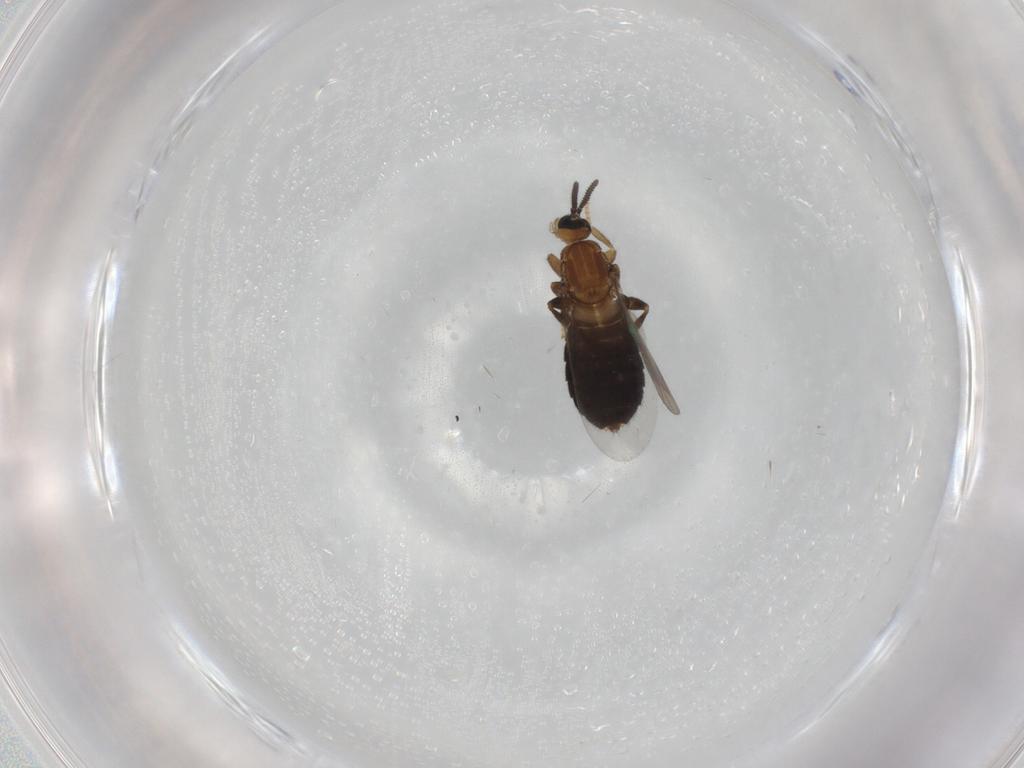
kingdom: Animalia
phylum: Arthropoda
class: Insecta
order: Diptera
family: Scatopsidae
